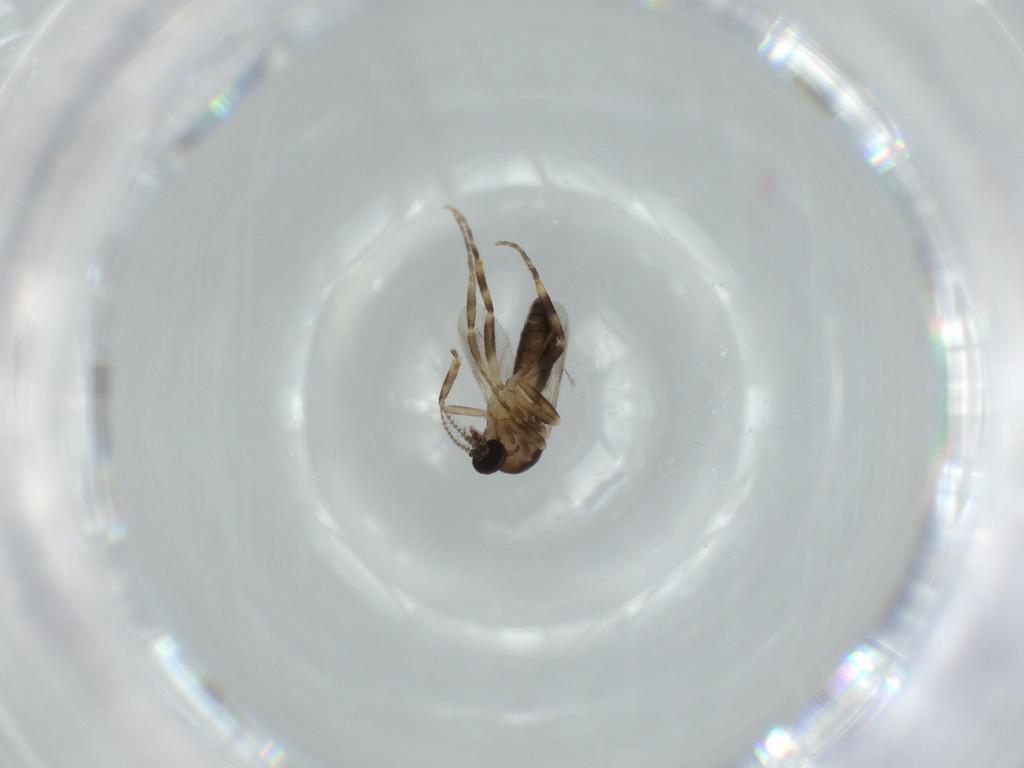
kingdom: Animalia
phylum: Arthropoda
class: Insecta
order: Diptera
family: Ceratopogonidae
